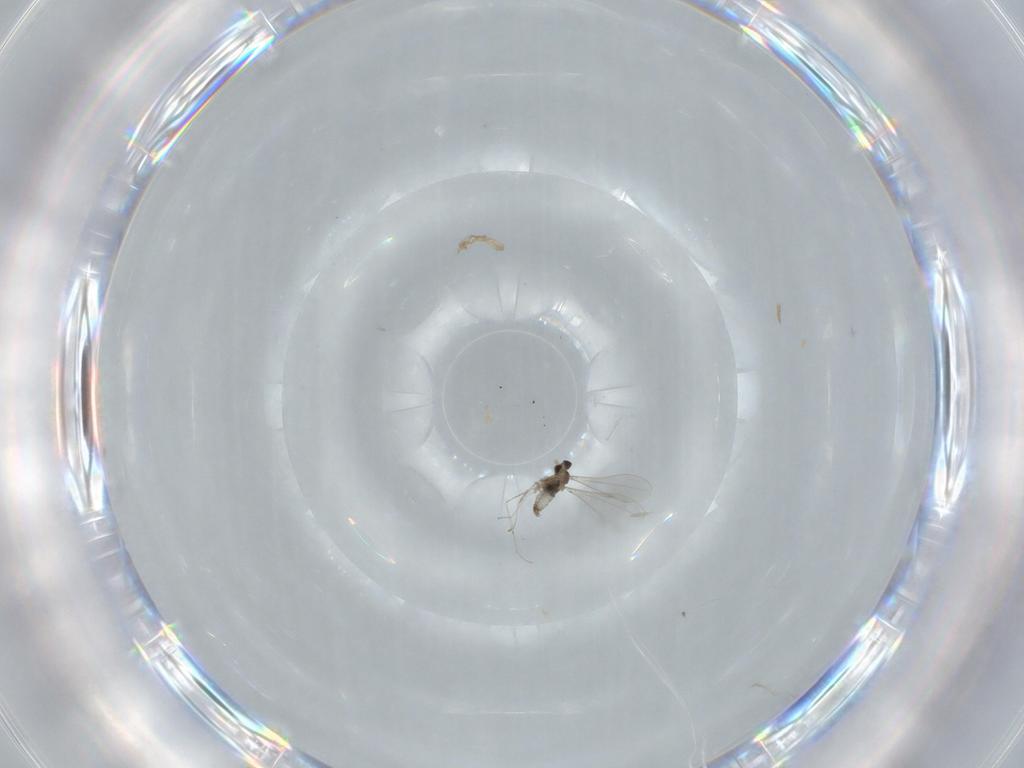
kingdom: Animalia
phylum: Arthropoda
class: Insecta
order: Diptera
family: Cecidomyiidae
